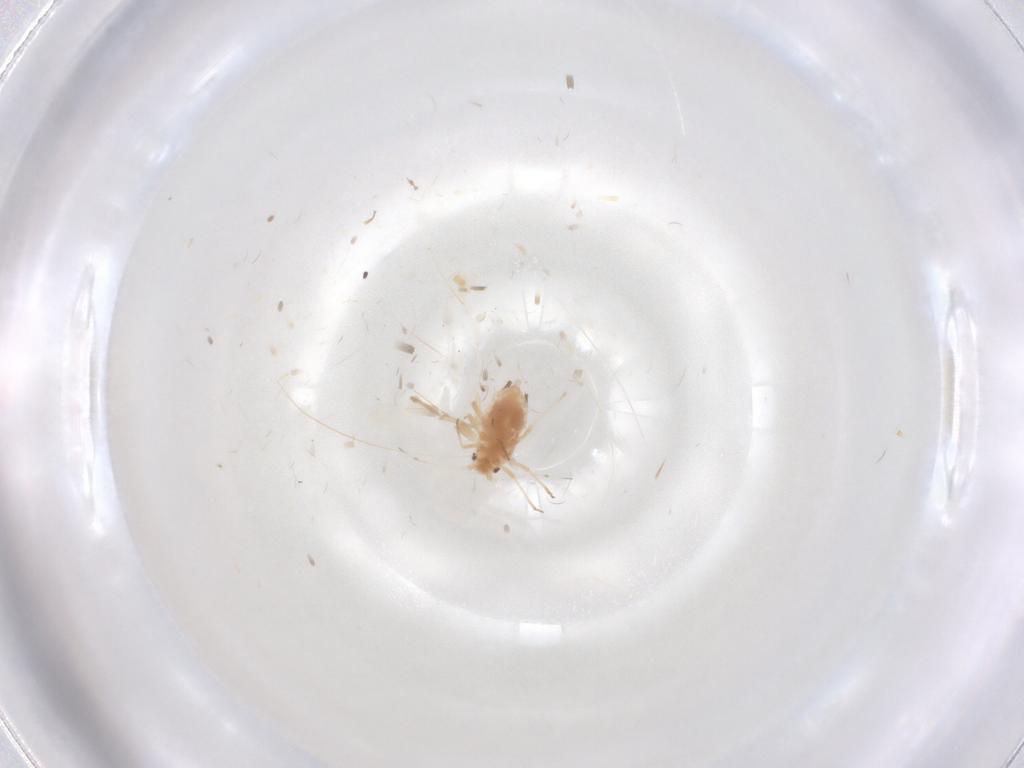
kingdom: Animalia
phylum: Arthropoda
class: Insecta
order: Hemiptera
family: Aphididae
